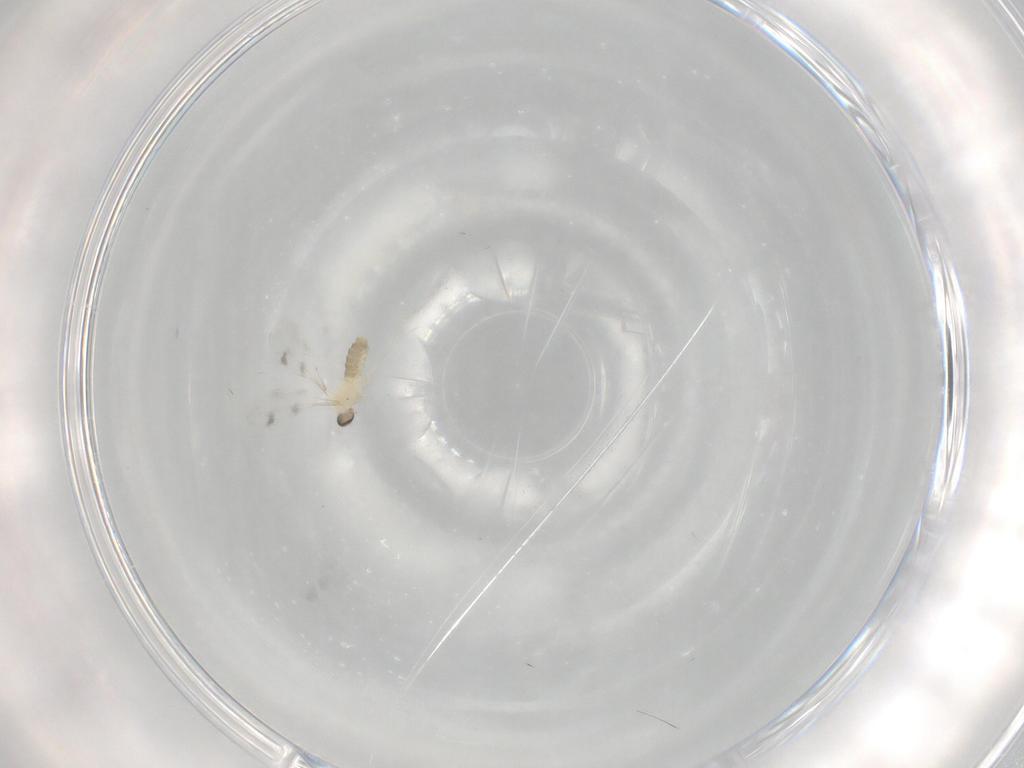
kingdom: Animalia
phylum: Arthropoda
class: Insecta
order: Diptera
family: Cecidomyiidae
